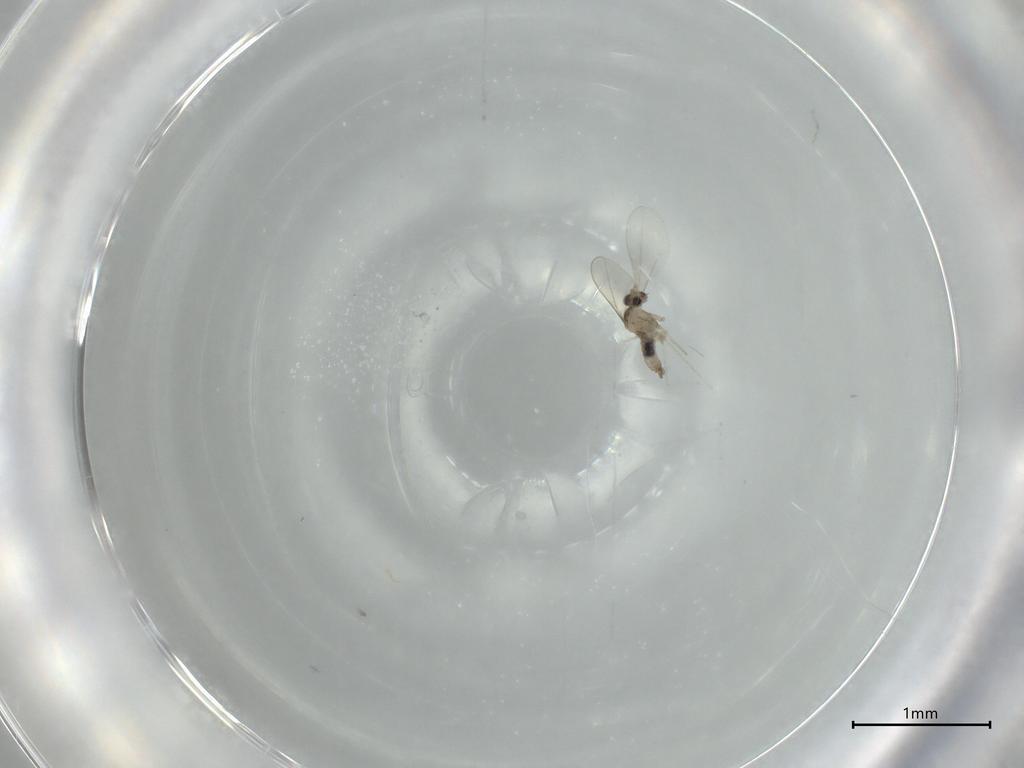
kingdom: Animalia
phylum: Arthropoda
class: Insecta
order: Diptera
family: Cecidomyiidae
